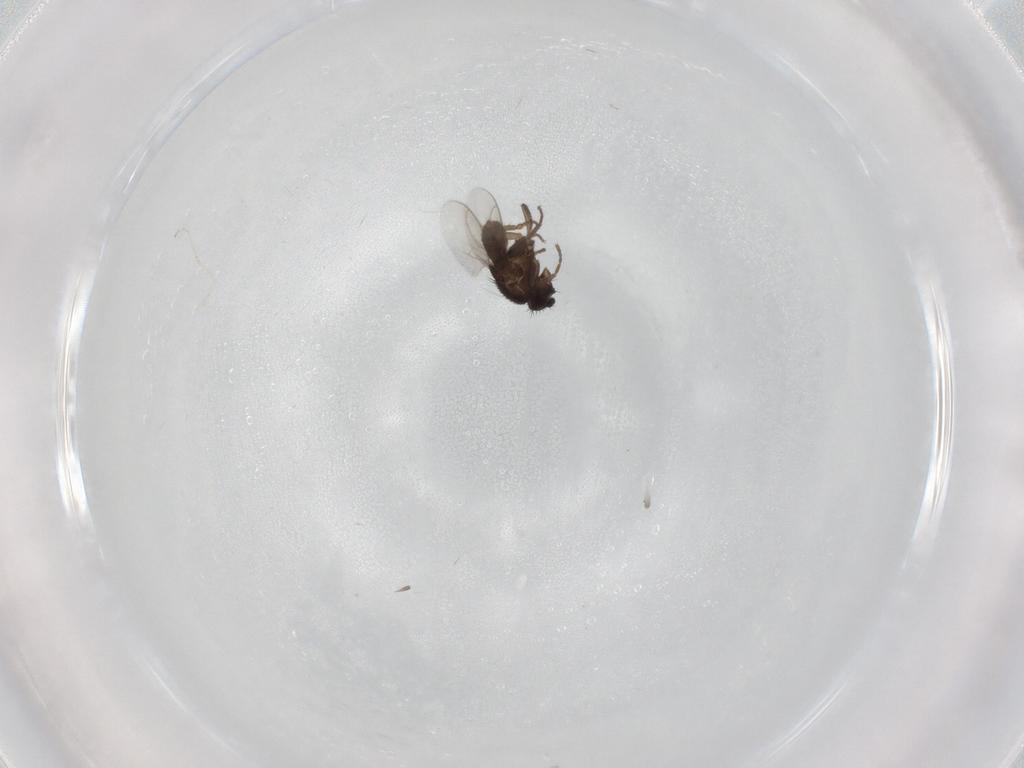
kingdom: Animalia
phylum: Arthropoda
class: Insecta
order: Diptera
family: Cecidomyiidae
